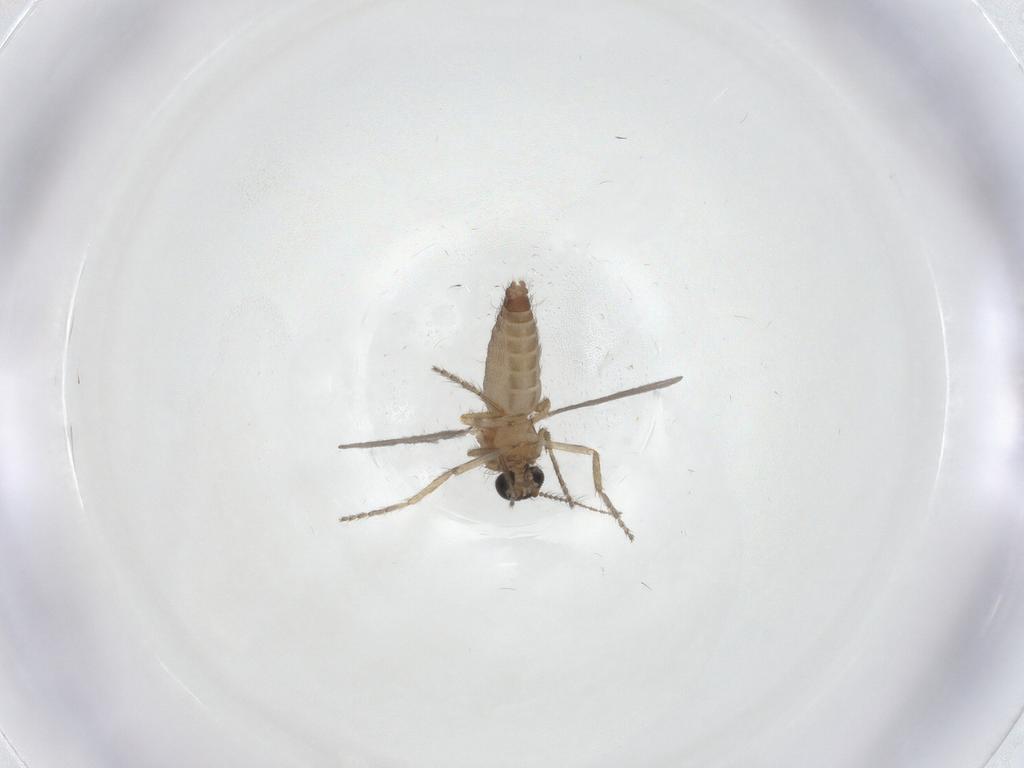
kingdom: Animalia
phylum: Arthropoda
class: Insecta
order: Diptera
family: Ceratopogonidae
